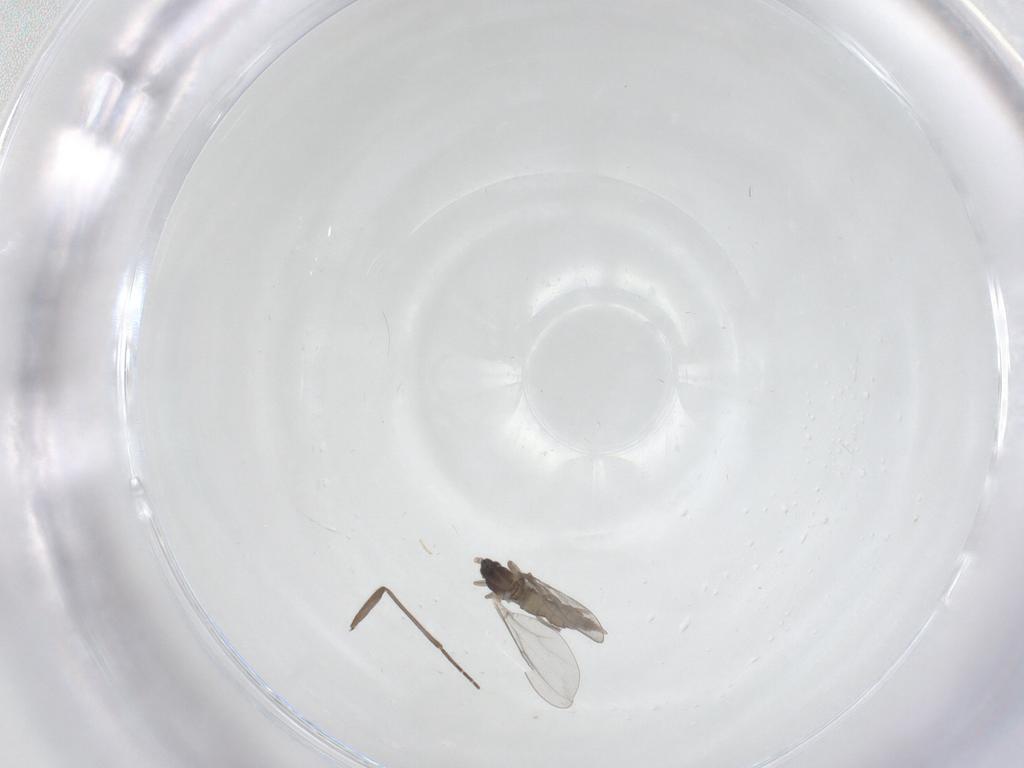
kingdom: Animalia
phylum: Arthropoda
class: Insecta
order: Diptera
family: Cecidomyiidae
